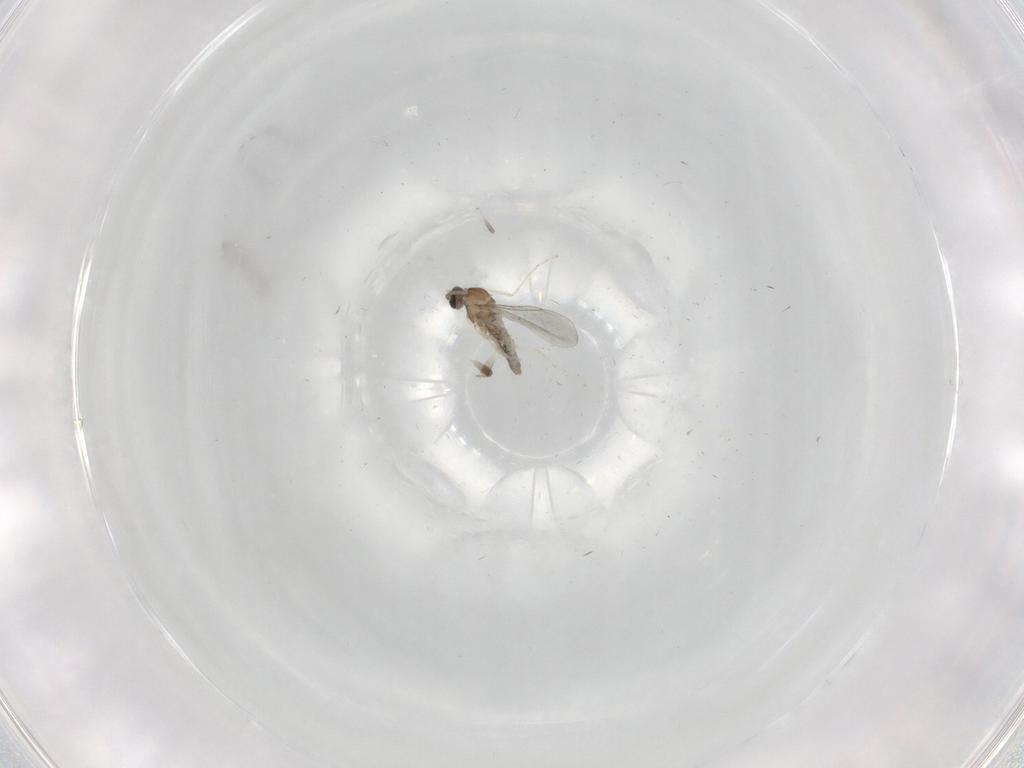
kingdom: Animalia
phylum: Arthropoda
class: Insecta
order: Diptera
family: Cecidomyiidae
